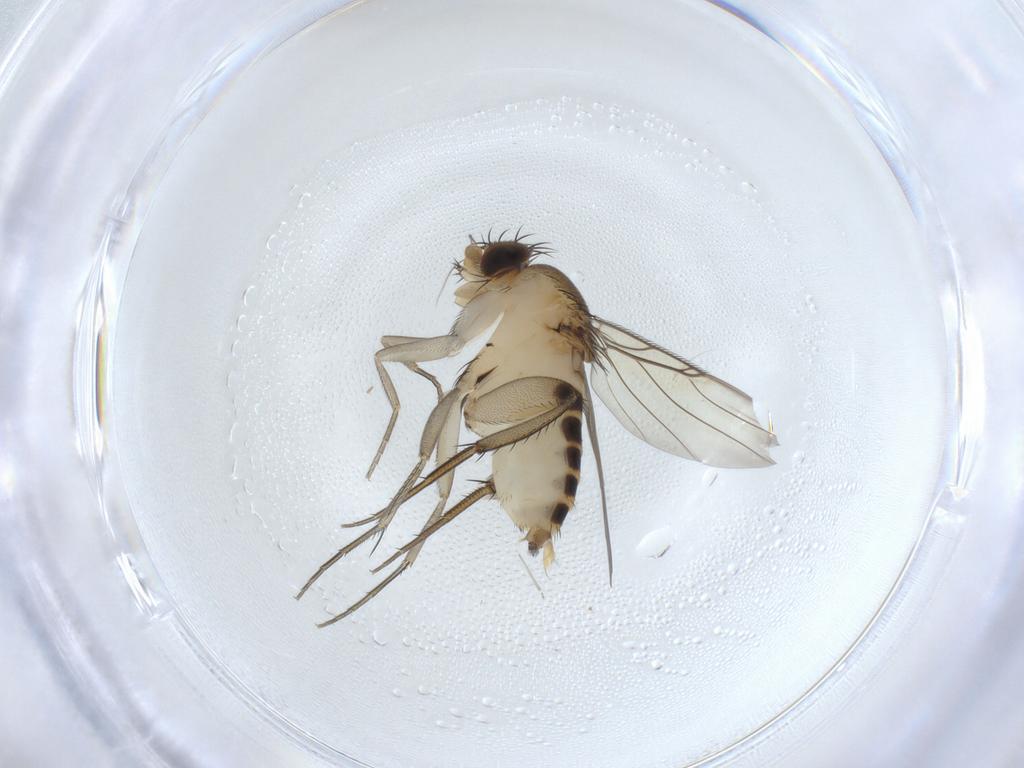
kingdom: Animalia
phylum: Arthropoda
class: Insecta
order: Diptera
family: Phoridae
